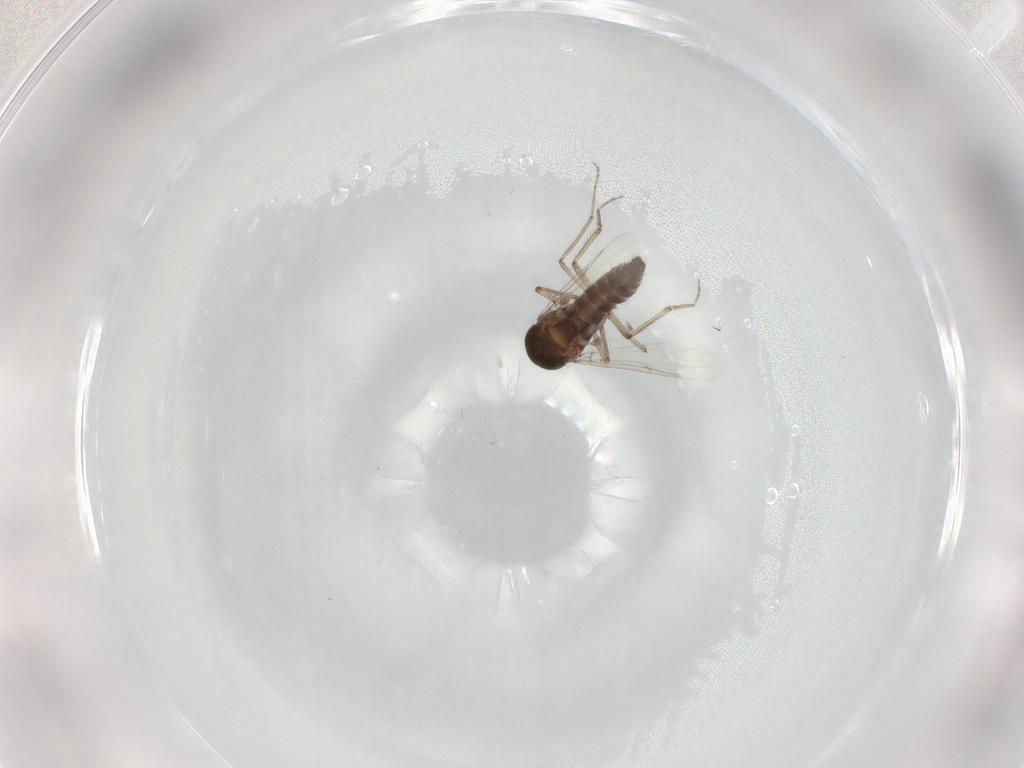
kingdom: Animalia
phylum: Arthropoda
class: Insecta
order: Diptera
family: Ceratopogonidae
